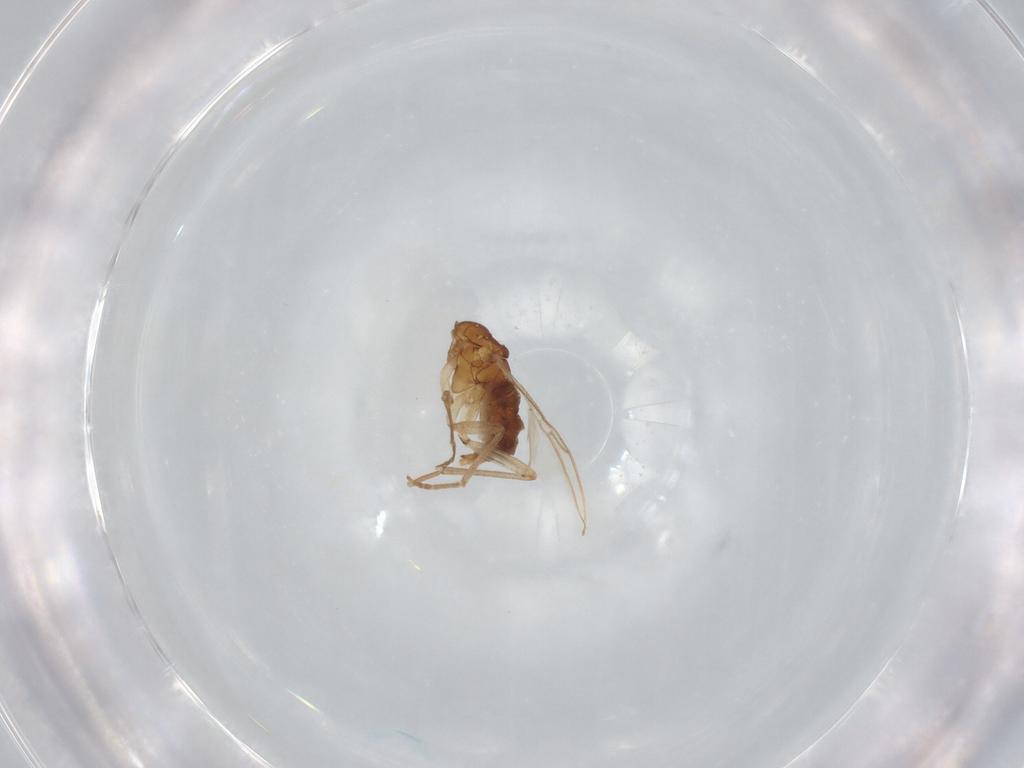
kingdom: Animalia
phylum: Arthropoda
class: Insecta
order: Diptera
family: Sciaridae
